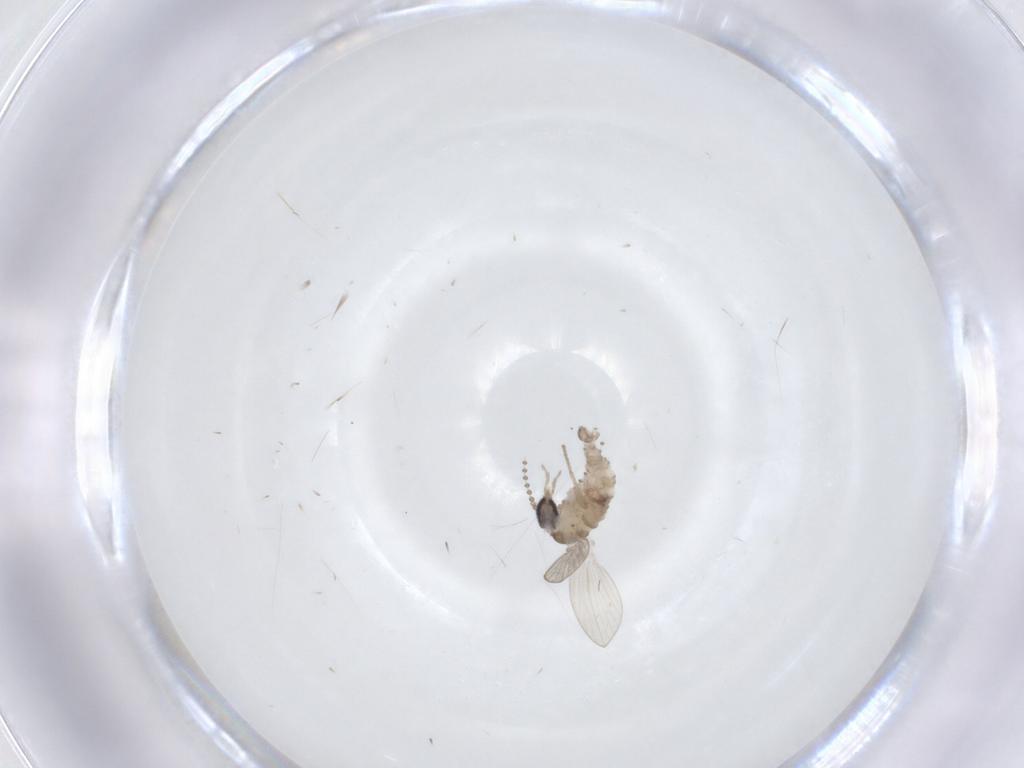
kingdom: Animalia
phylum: Arthropoda
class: Insecta
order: Diptera
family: Psychodidae
